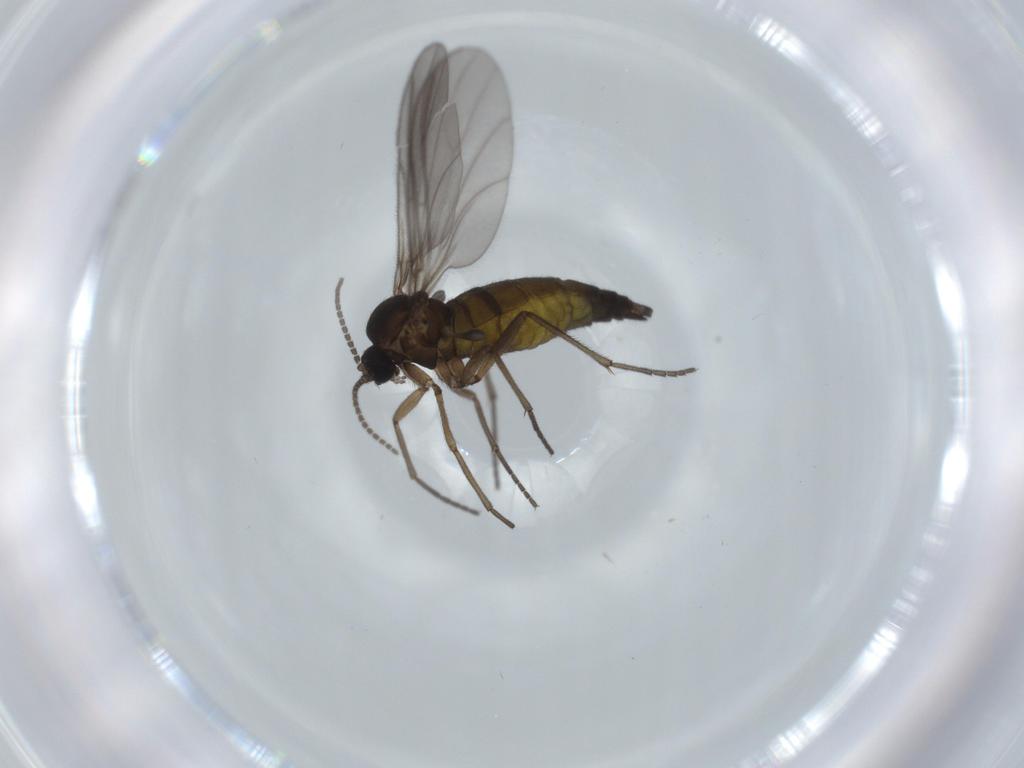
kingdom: Animalia
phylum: Arthropoda
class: Insecta
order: Diptera
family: Sciaridae
